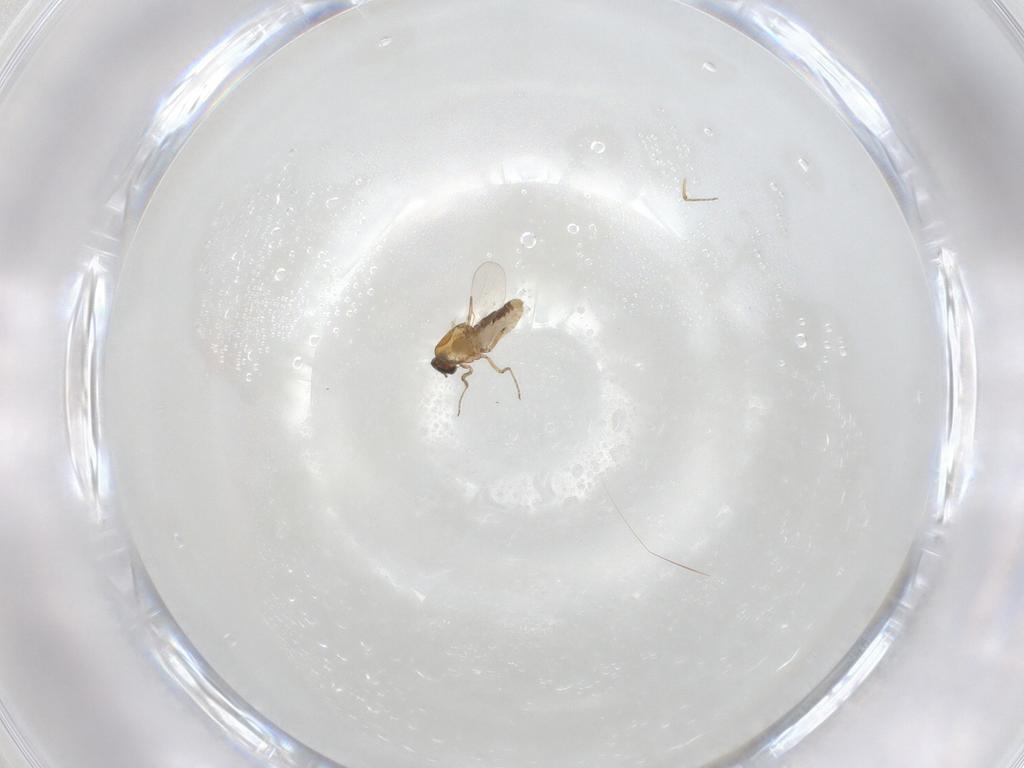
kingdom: Animalia
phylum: Arthropoda
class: Insecta
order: Diptera
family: Ceratopogonidae
